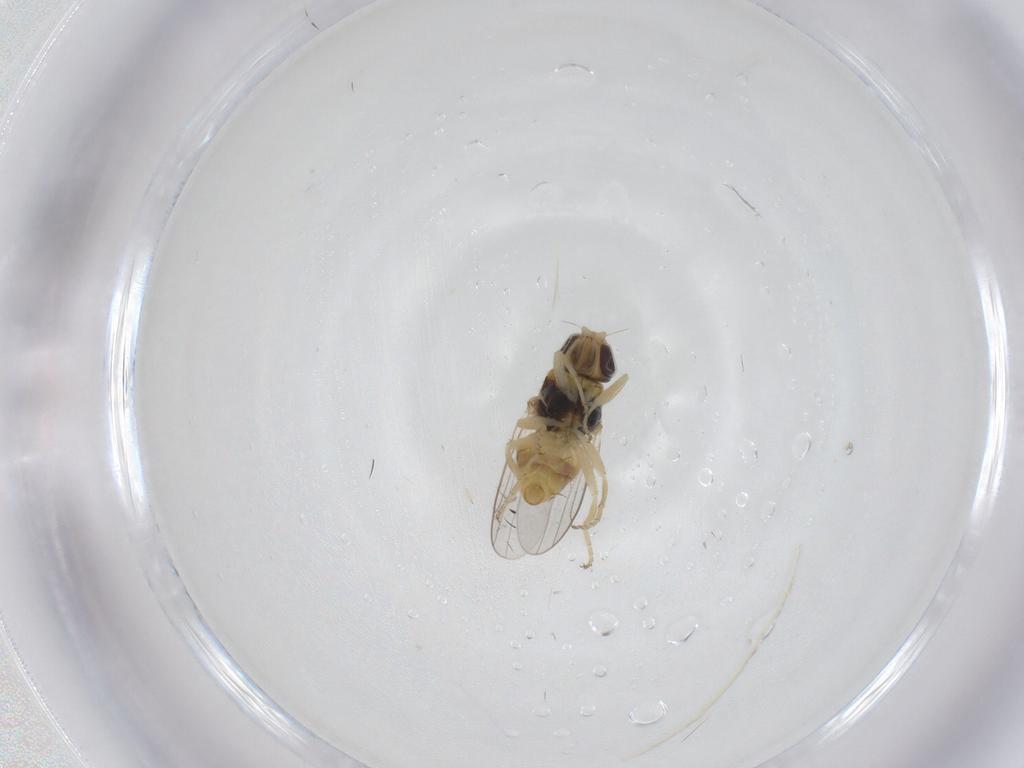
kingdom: Animalia
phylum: Arthropoda
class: Insecta
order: Diptera
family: Chloropidae
